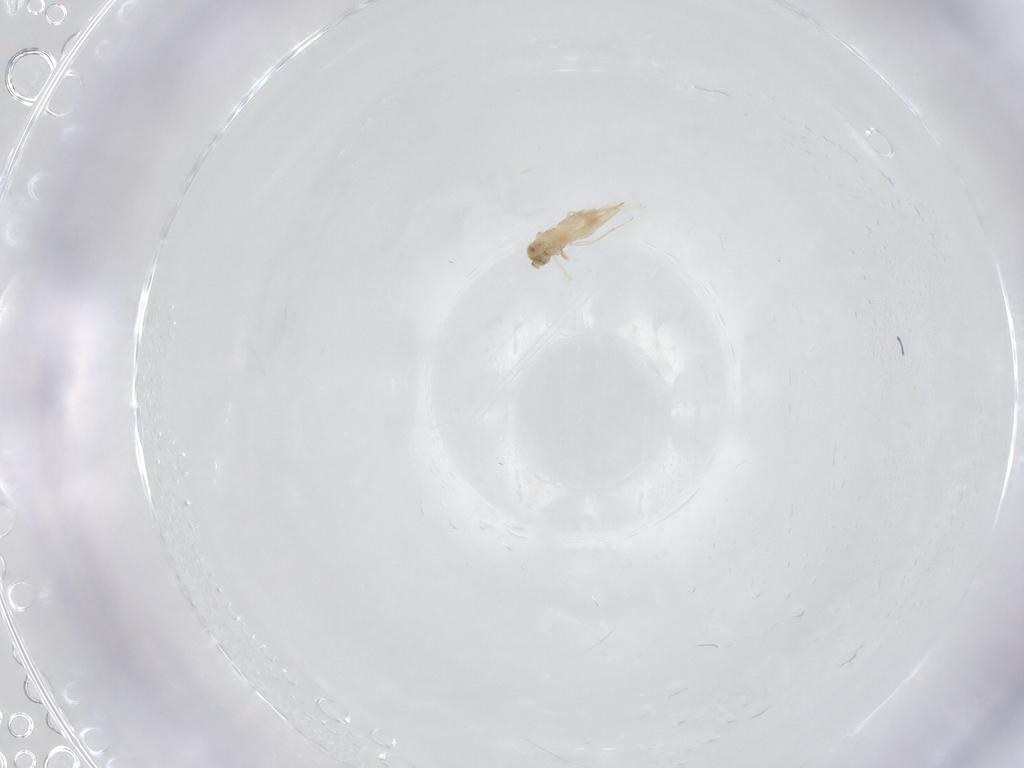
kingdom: Animalia
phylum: Arthropoda
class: Insecta
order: Hymenoptera
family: Aphelinidae
